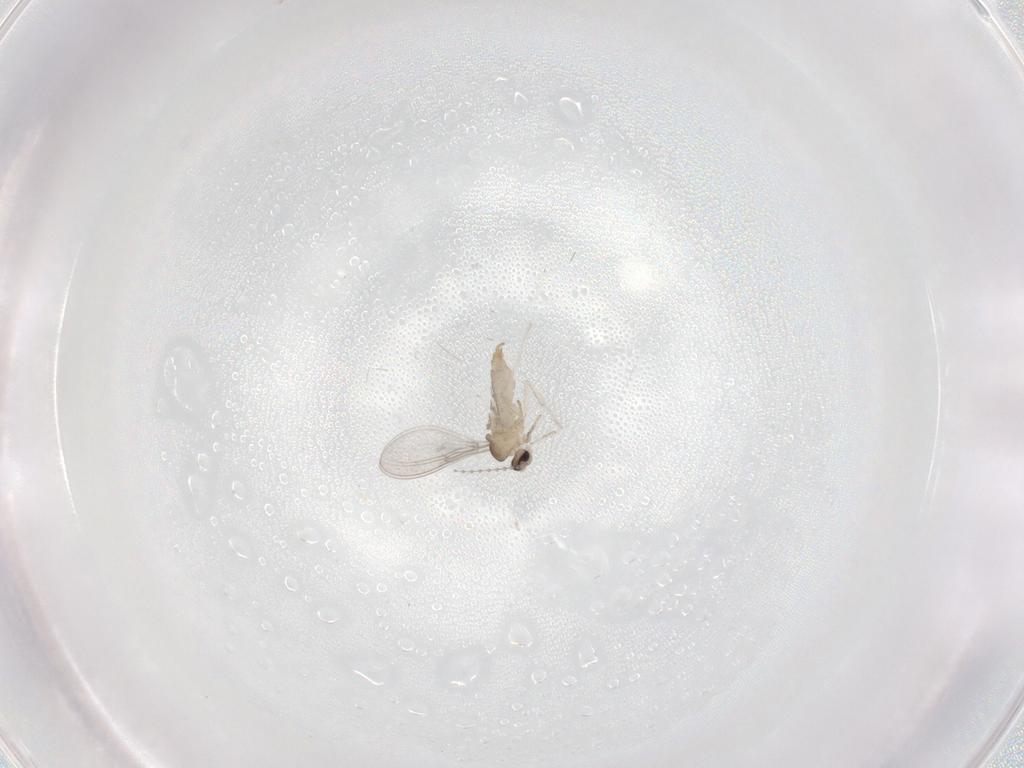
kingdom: Animalia
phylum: Arthropoda
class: Insecta
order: Diptera
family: Cecidomyiidae
